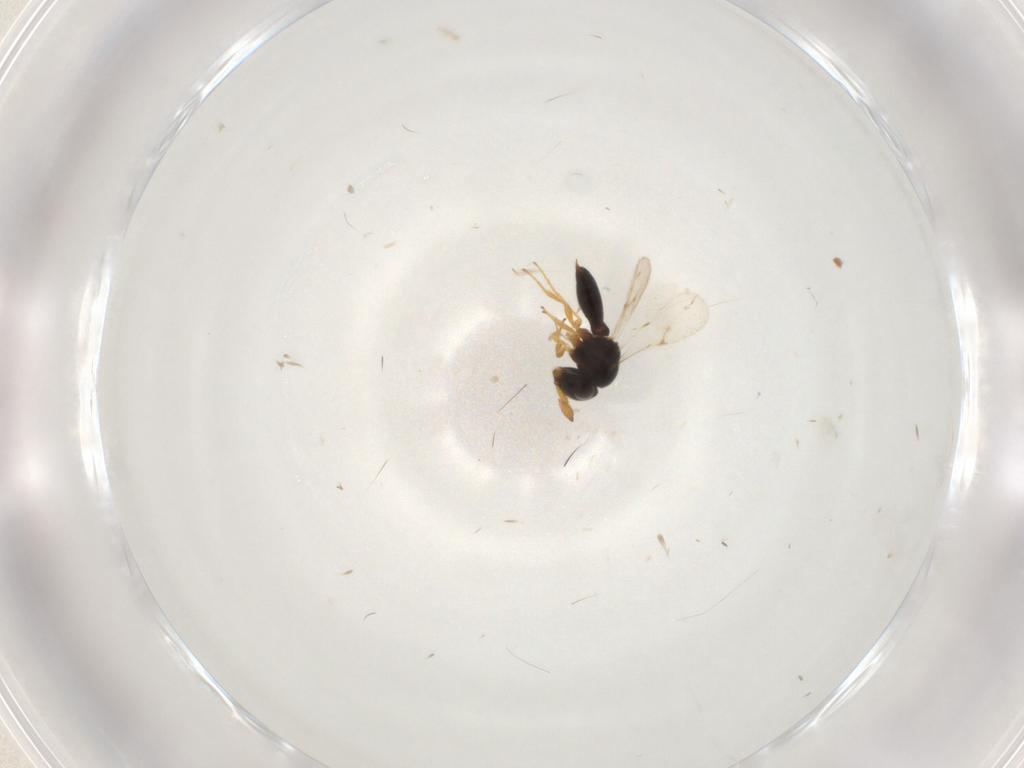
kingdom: Animalia
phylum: Arthropoda
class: Insecta
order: Hymenoptera
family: Scelionidae
